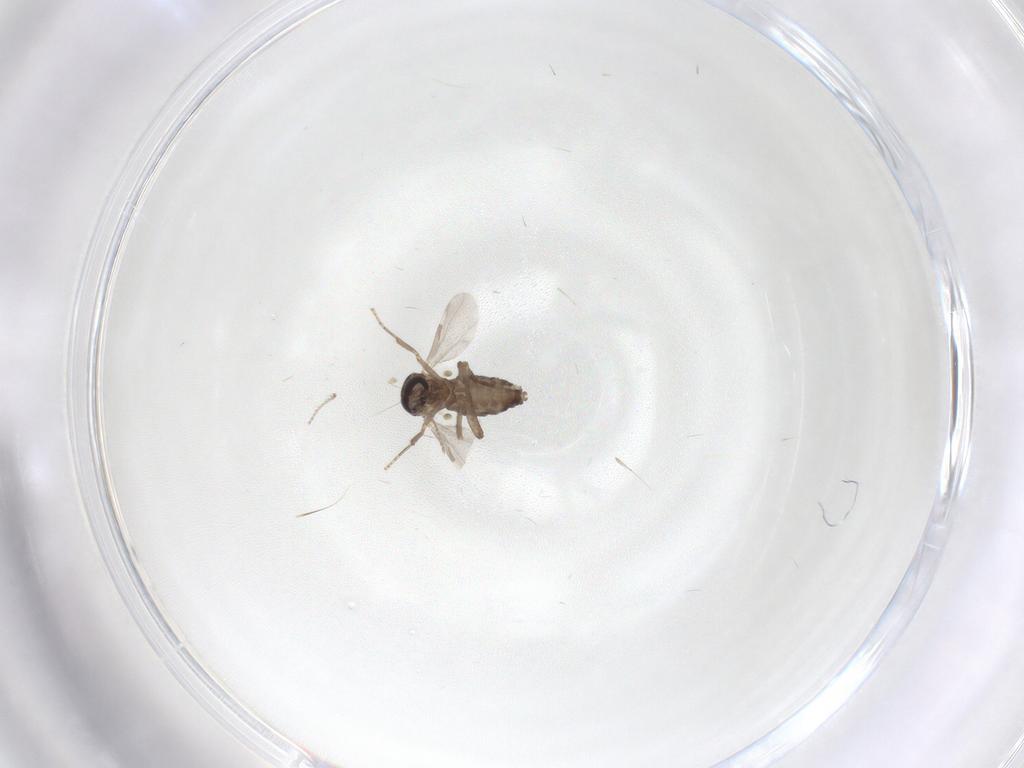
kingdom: Animalia
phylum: Arthropoda
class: Insecta
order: Diptera
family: Ceratopogonidae
